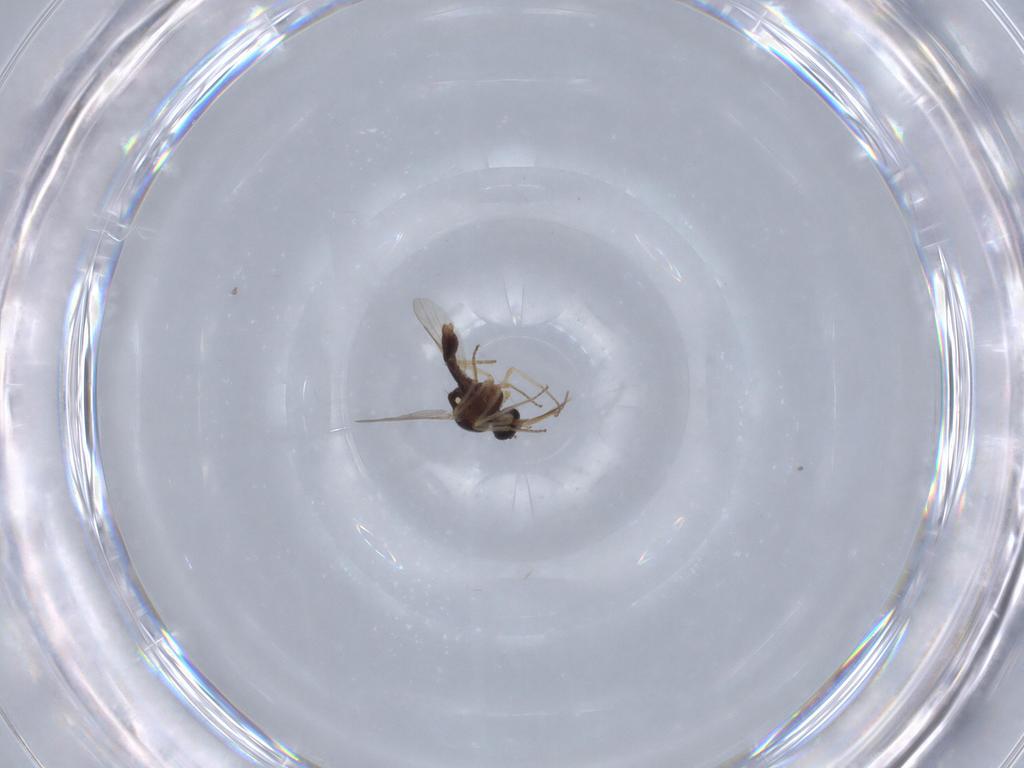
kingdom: Animalia
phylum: Arthropoda
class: Insecta
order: Diptera
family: Ceratopogonidae
